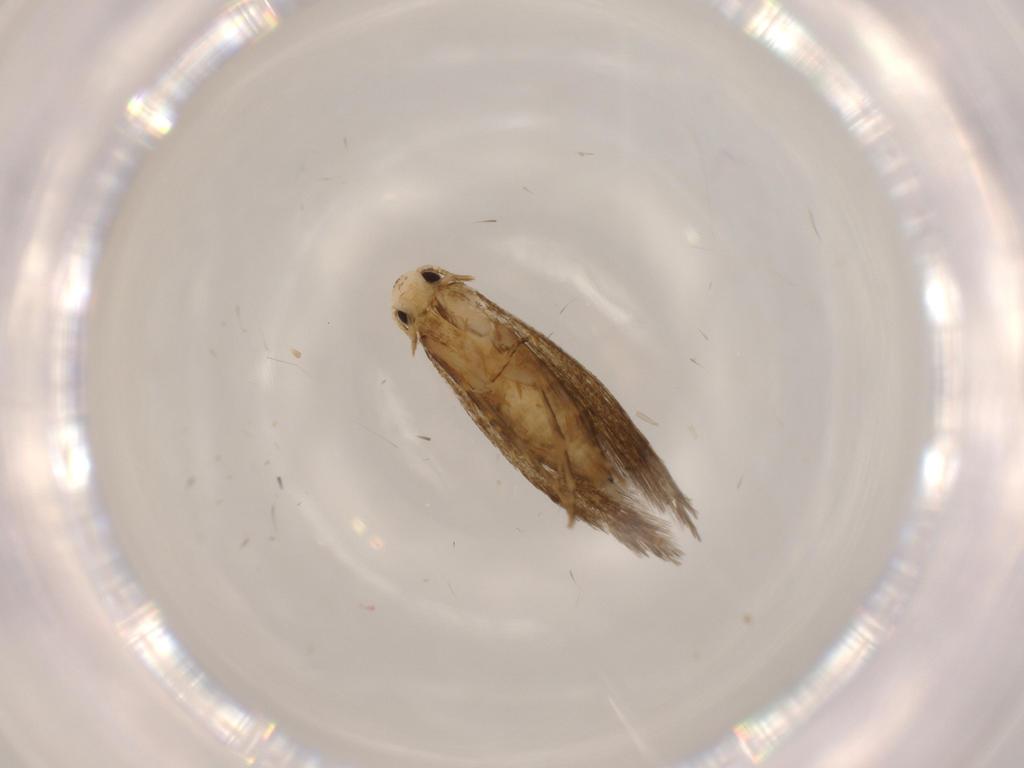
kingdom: Animalia
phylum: Arthropoda
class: Insecta
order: Lepidoptera
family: Tineidae
